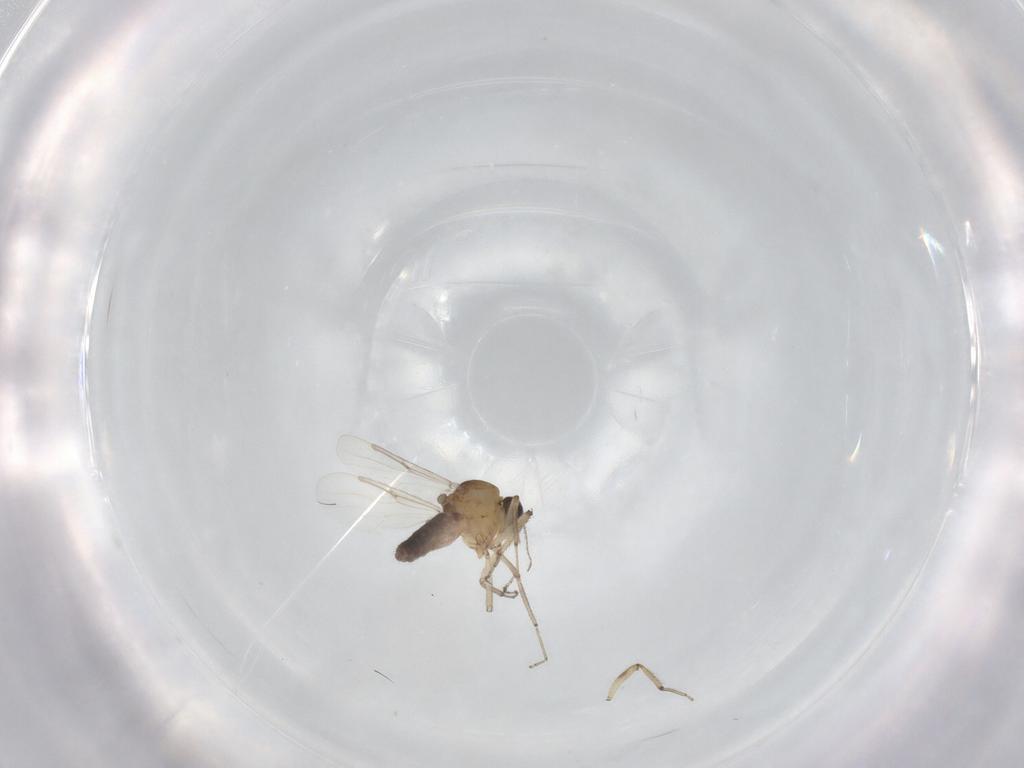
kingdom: Animalia
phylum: Arthropoda
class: Insecta
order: Diptera
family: Ceratopogonidae
